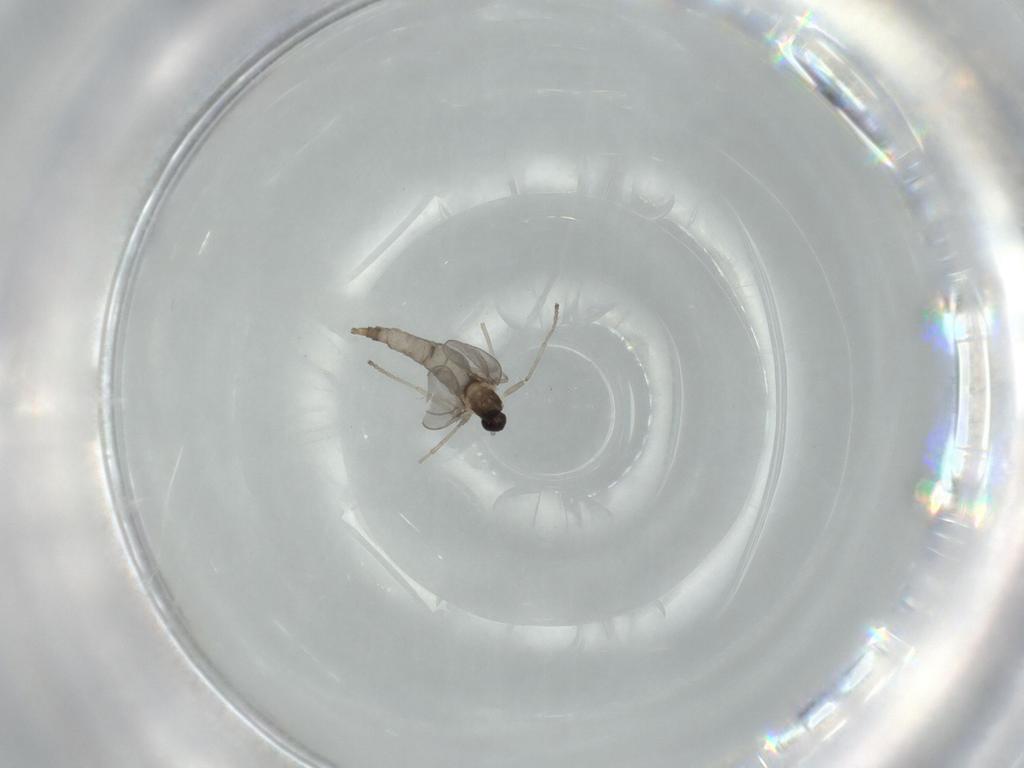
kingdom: Animalia
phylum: Arthropoda
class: Insecta
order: Diptera
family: Cecidomyiidae
